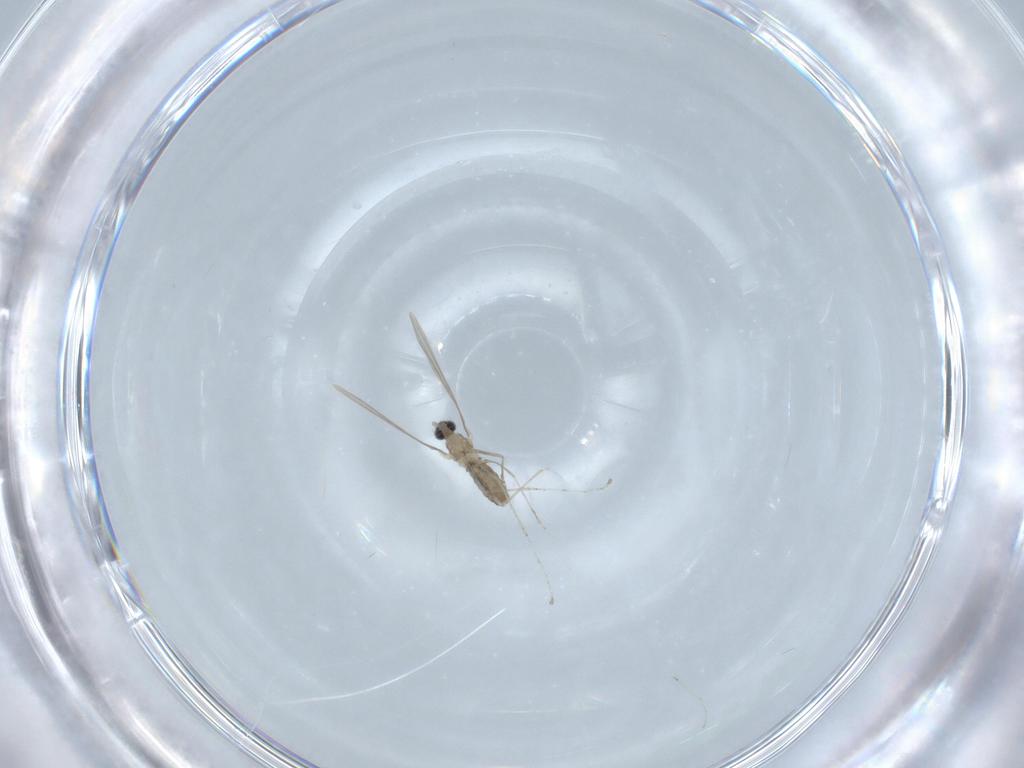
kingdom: Animalia
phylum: Arthropoda
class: Insecta
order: Diptera
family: Cecidomyiidae
